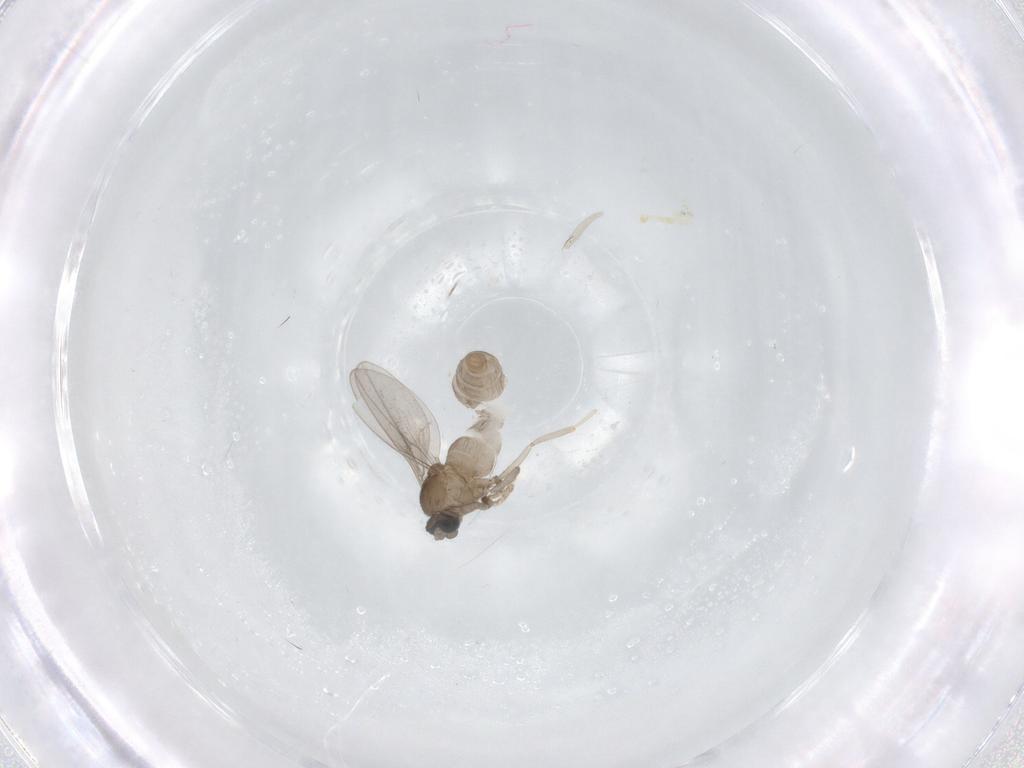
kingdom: Animalia
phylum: Arthropoda
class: Insecta
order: Diptera
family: Cecidomyiidae
